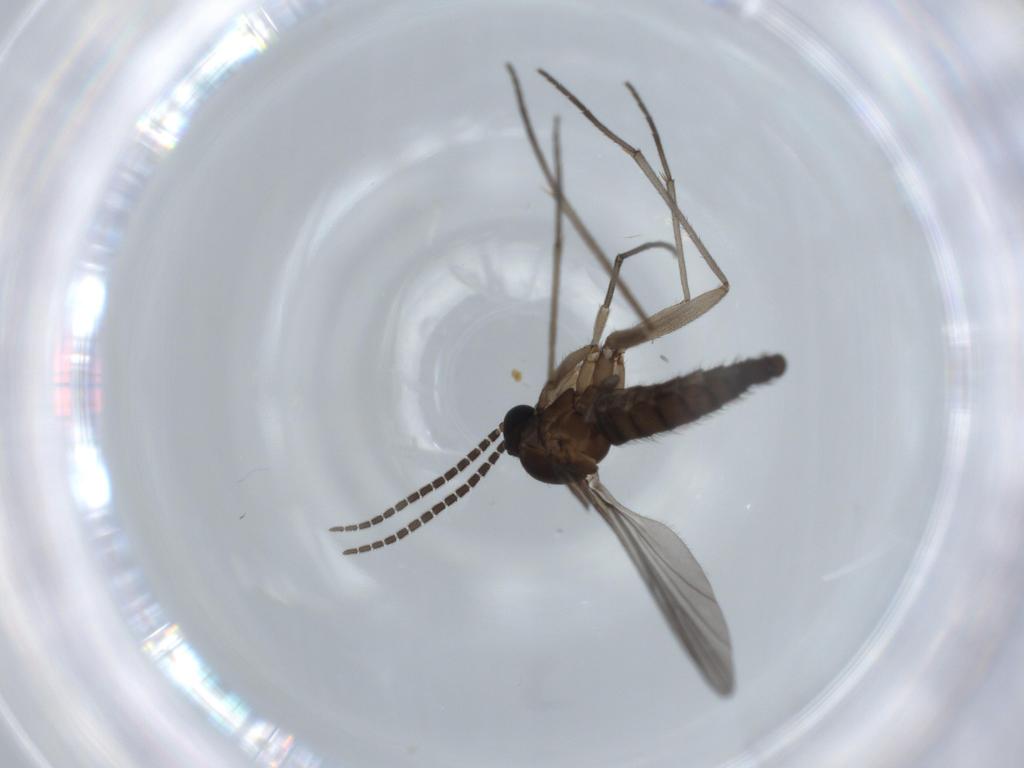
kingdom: Animalia
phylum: Arthropoda
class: Insecta
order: Diptera
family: Sciaridae
